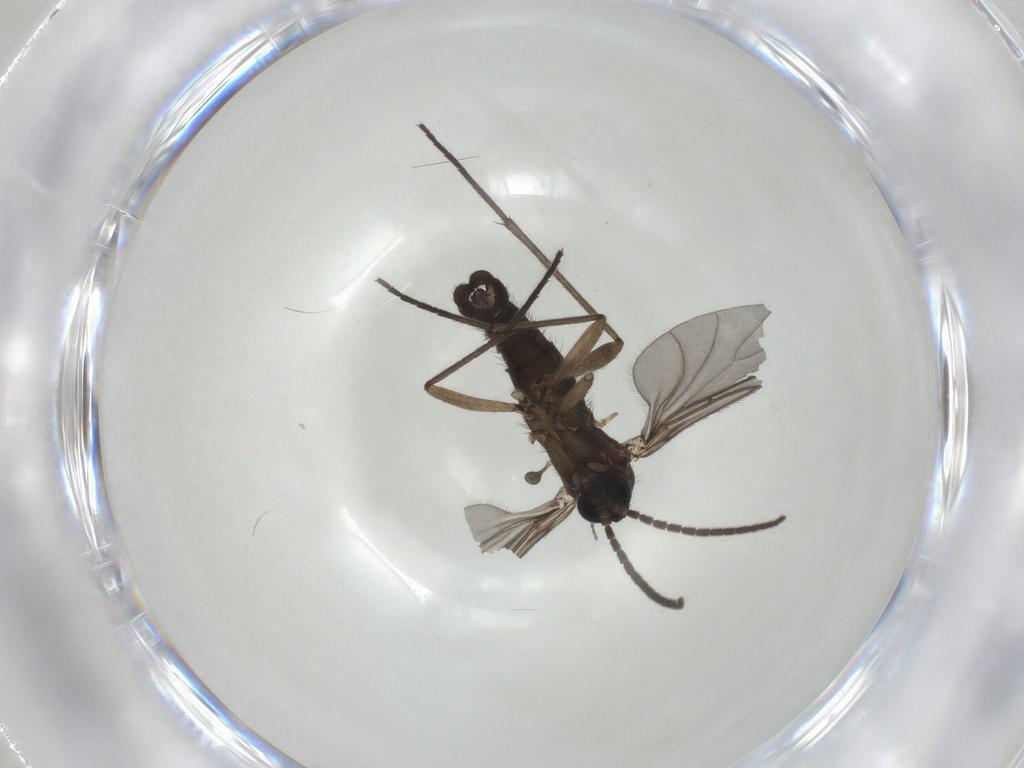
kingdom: Animalia
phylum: Arthropoda
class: Insecta
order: Diptera
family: Sciaridae
